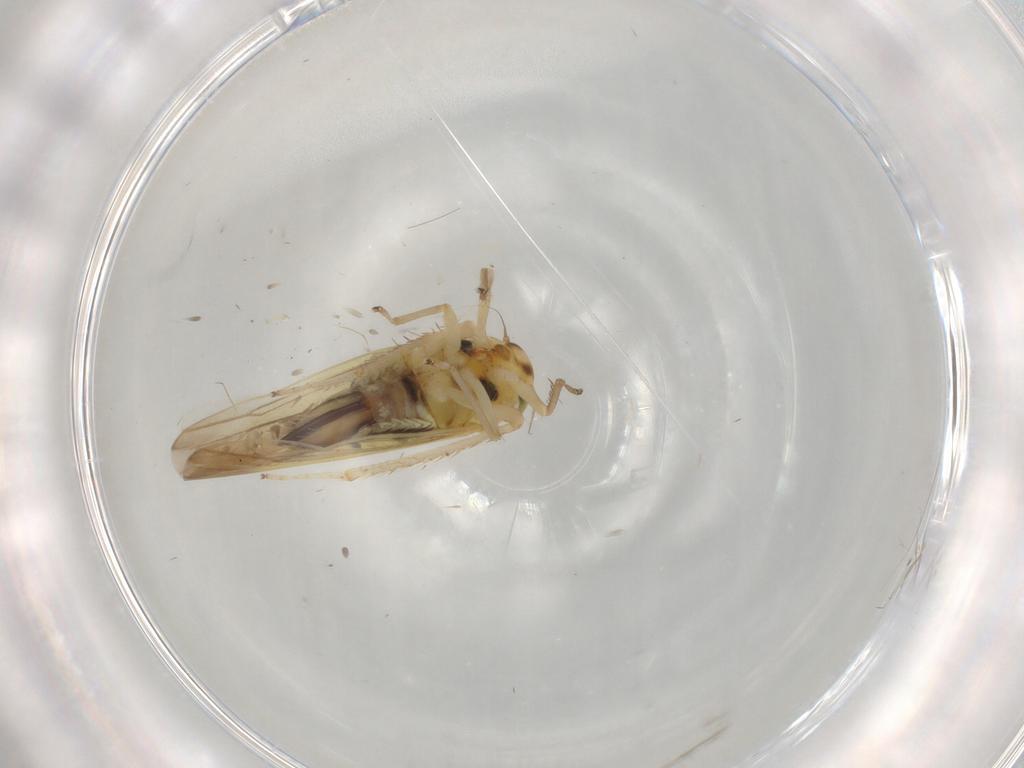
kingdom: Animalia
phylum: Arthropoda
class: Insecta
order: Hymenoptera
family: Dryinidae
